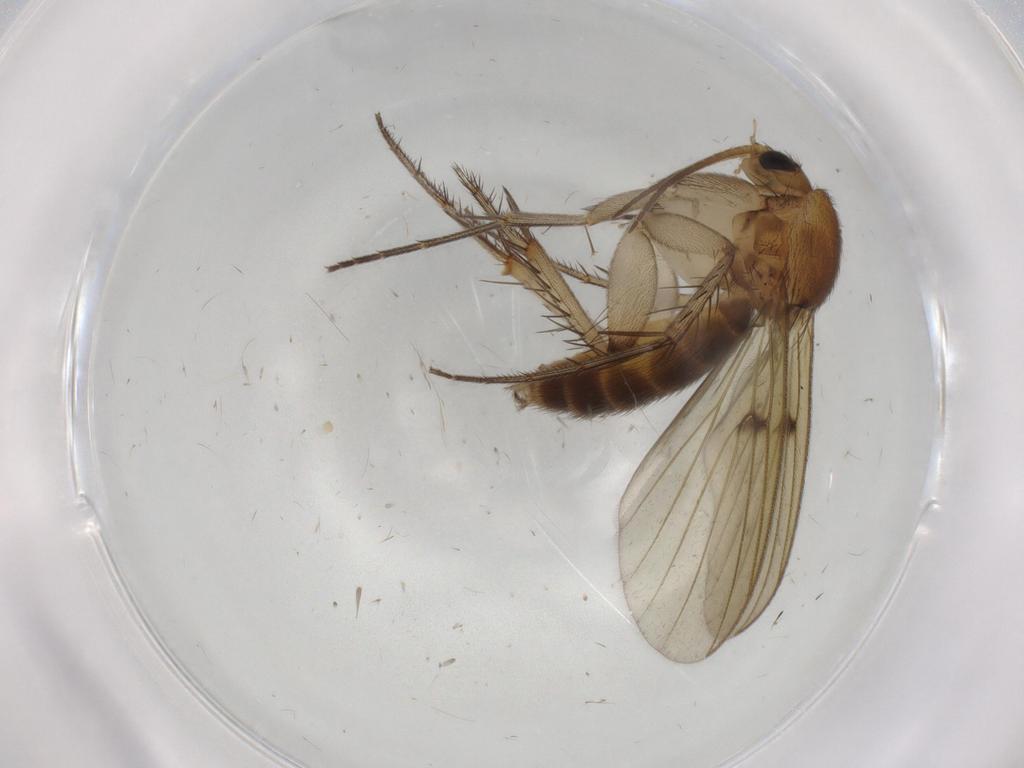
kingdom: Animalia
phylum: Arthropoda
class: Insecta
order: Diptera
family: Mycetophilidae
